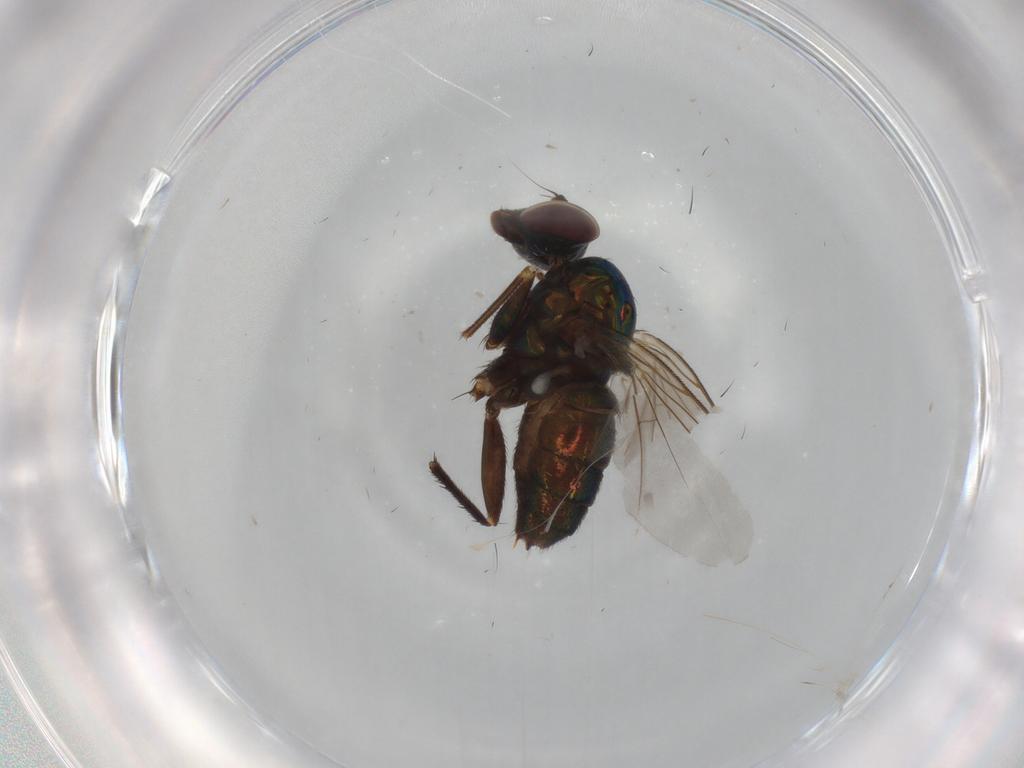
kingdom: Animalia
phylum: Arthropoda
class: Insecta
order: Diptera
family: Dolichopodidae
